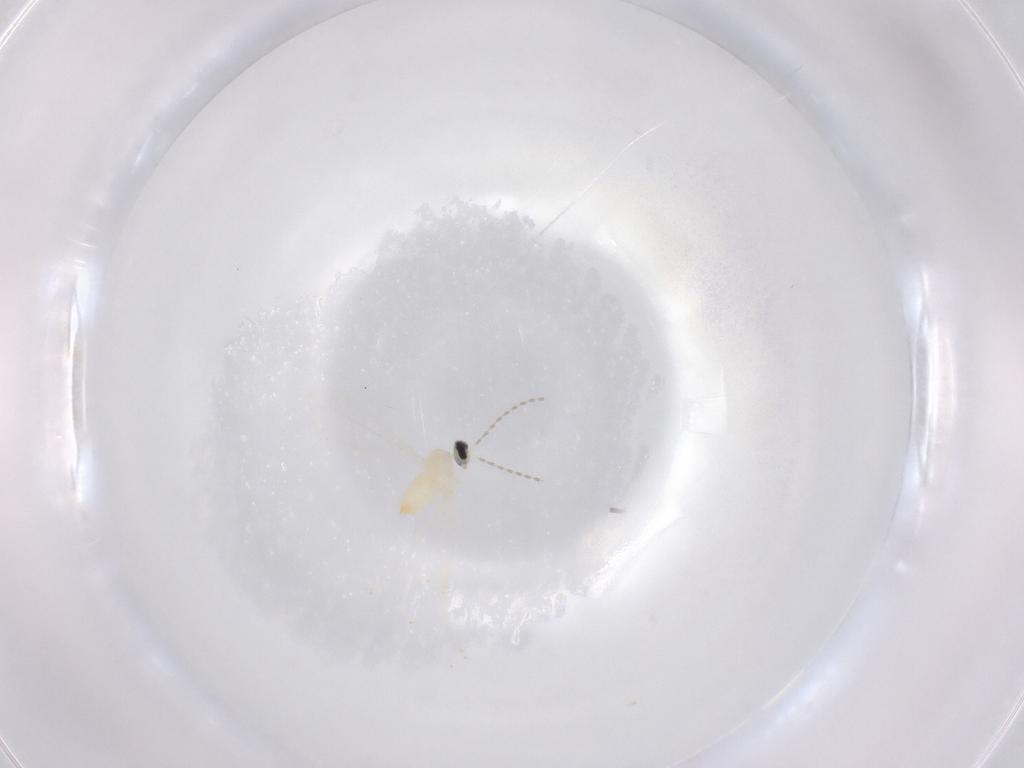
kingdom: Animalia
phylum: Arthropoda
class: Insecta
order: Diptera
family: Cecidomyiidae
